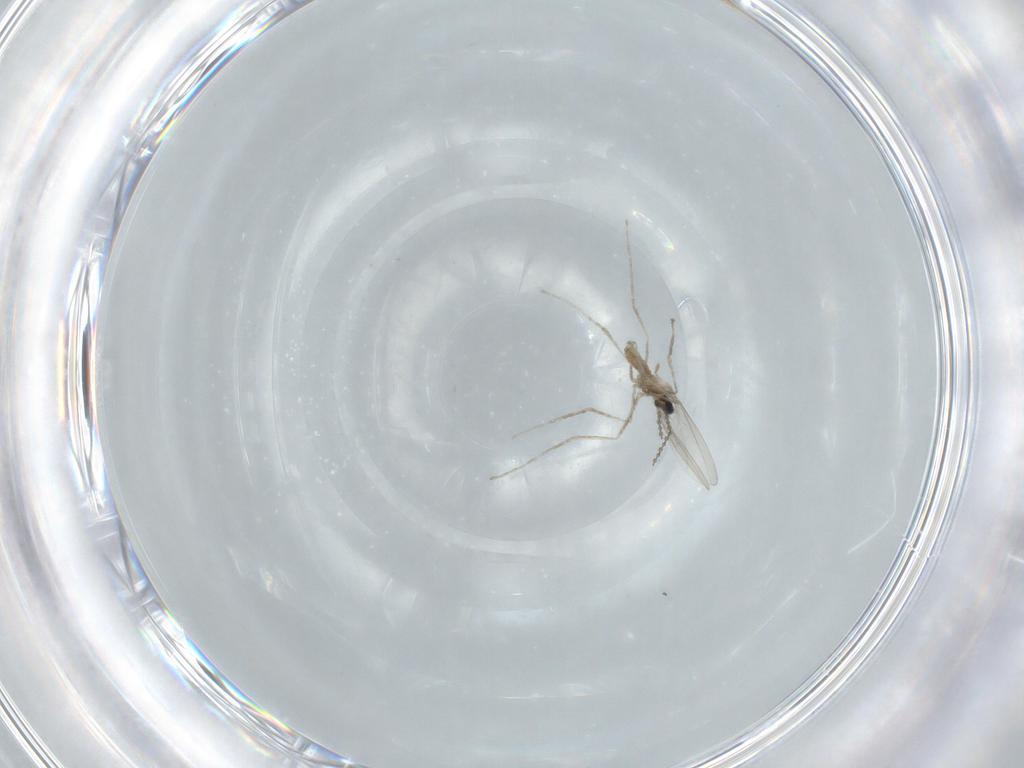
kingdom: Animalia
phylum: Arthropoda
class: Insecta
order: Diptera
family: Cecidomyiidae
